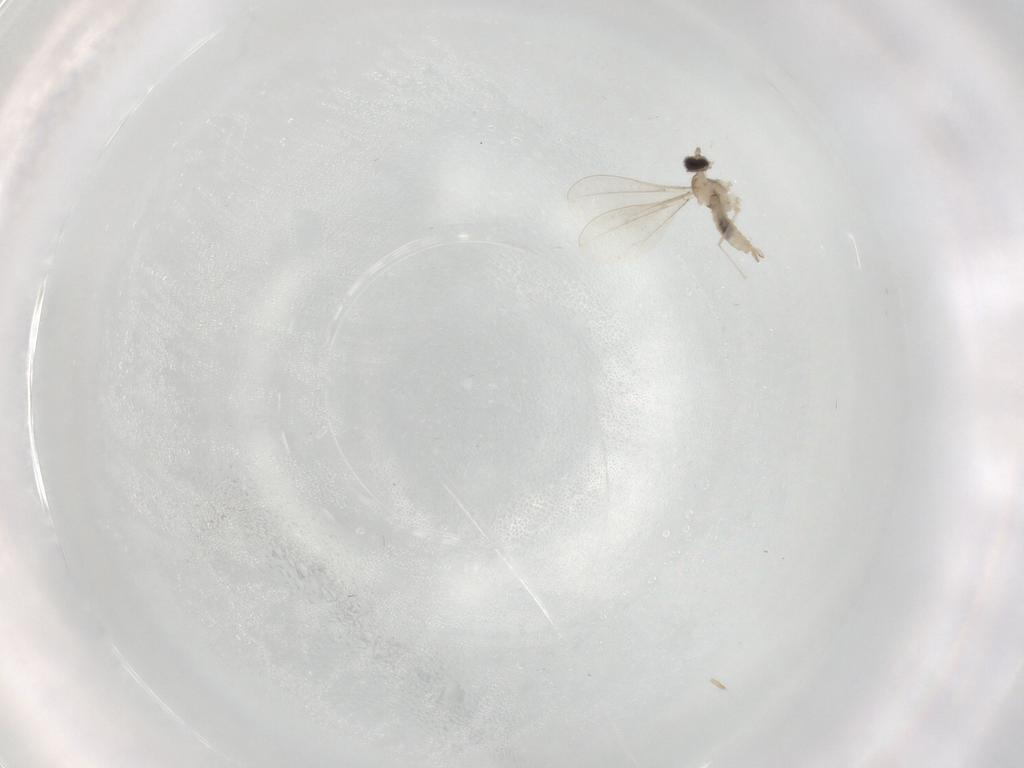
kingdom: Animalia
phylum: Arthropoda
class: Insecta
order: Diptera
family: Cecidomyiidae
